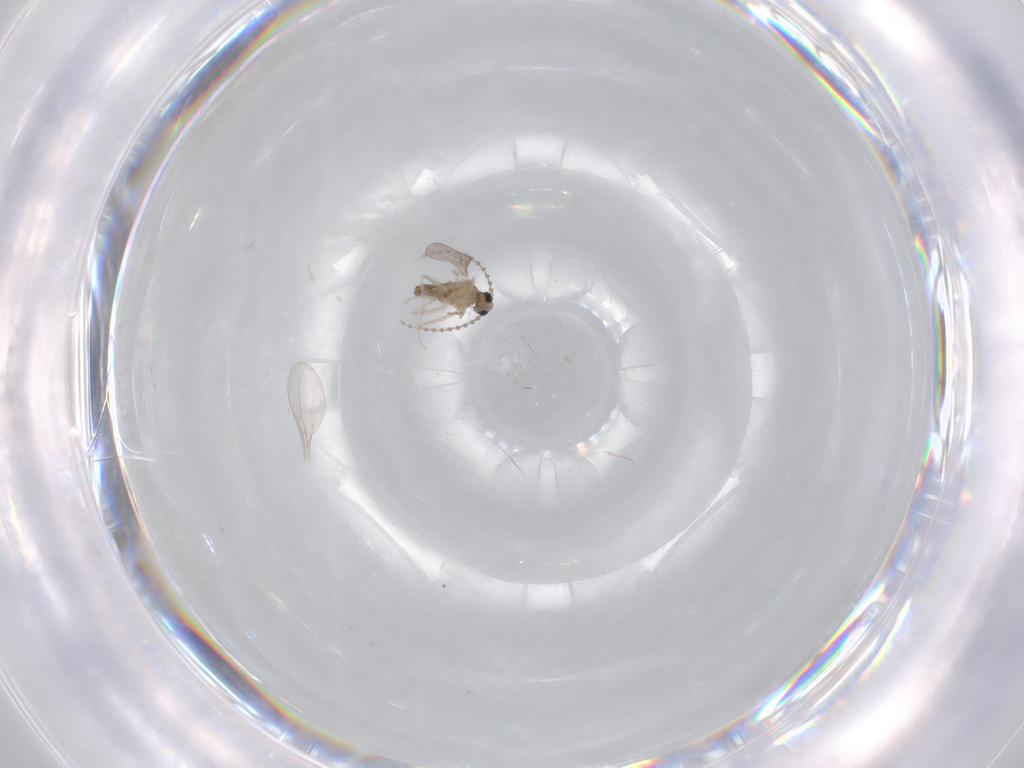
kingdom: Animalia
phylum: Arthropoda
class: Insecta
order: Diptera
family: Cecidomyiidae
